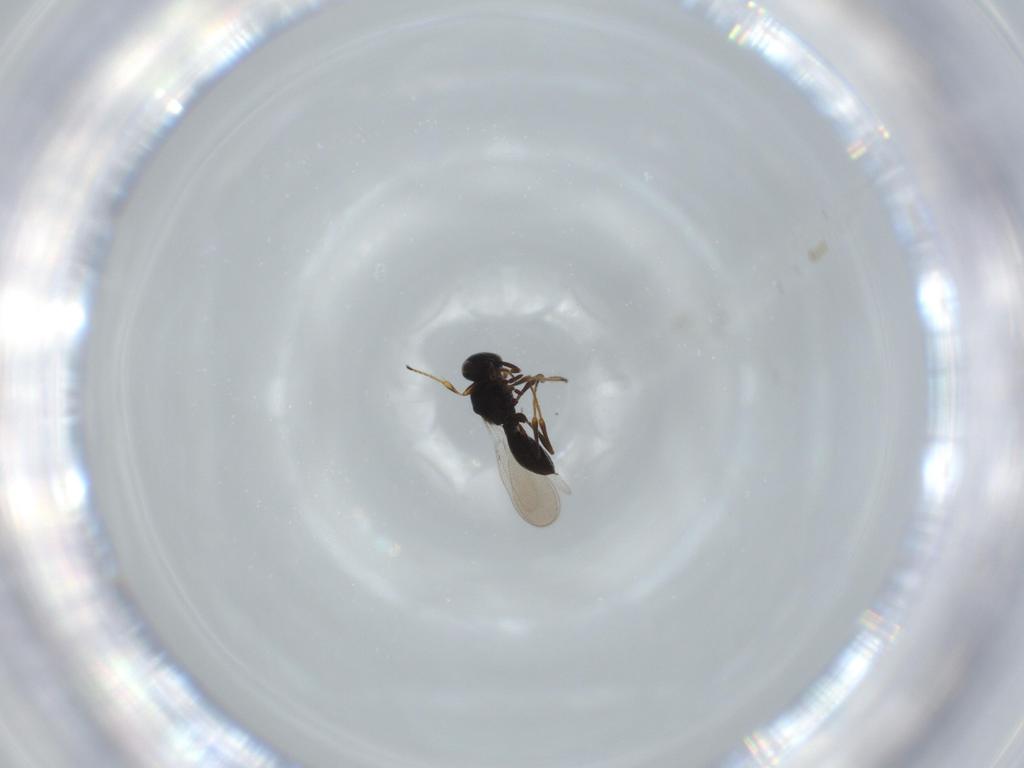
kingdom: Animalia
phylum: Arthropoda
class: Insecta
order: Hymenoptera
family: Platygastridae
